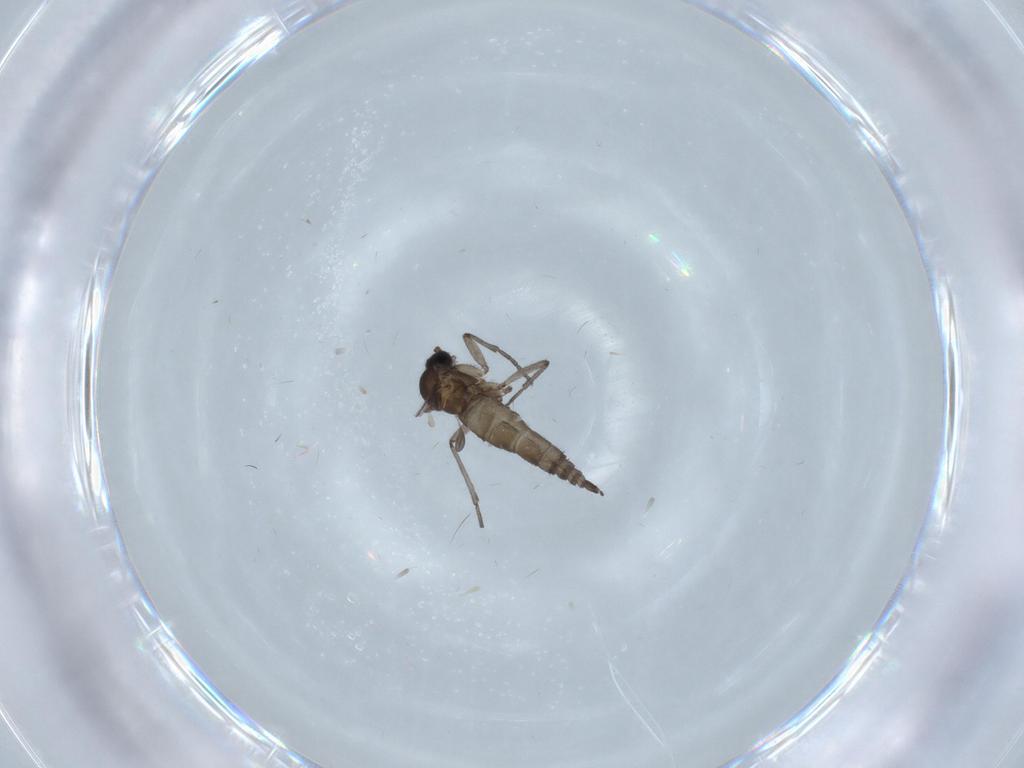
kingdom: Animalia
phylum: Arthropoda
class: Insecta
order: Diptera
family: Sciaridae
